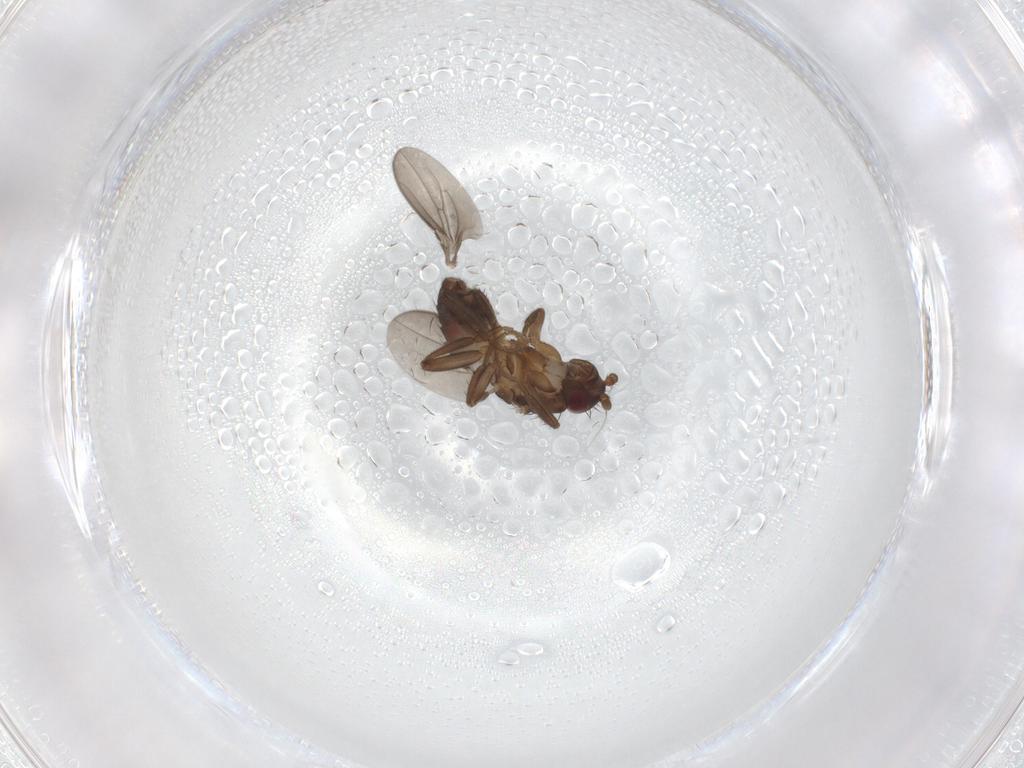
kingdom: Animalia
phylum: Arthropoda
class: Insecta
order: Diptera
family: Sphaeroceridae
